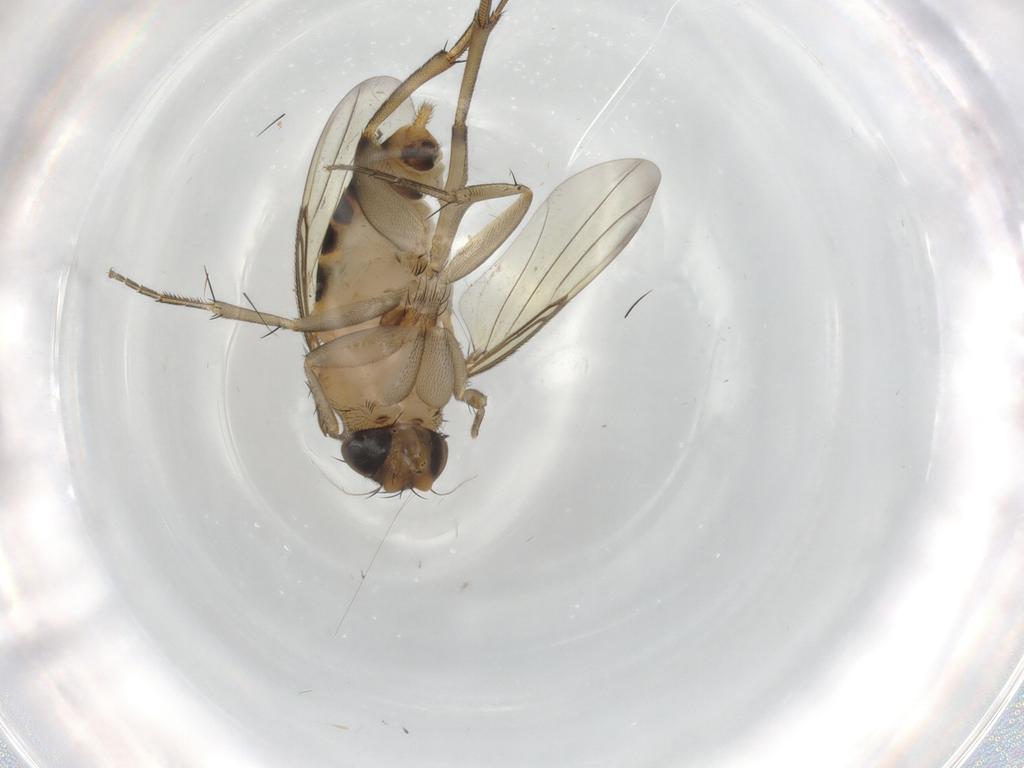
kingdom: Animalia
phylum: Arthropoda
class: Insecta
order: Diptera
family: Phoridae
